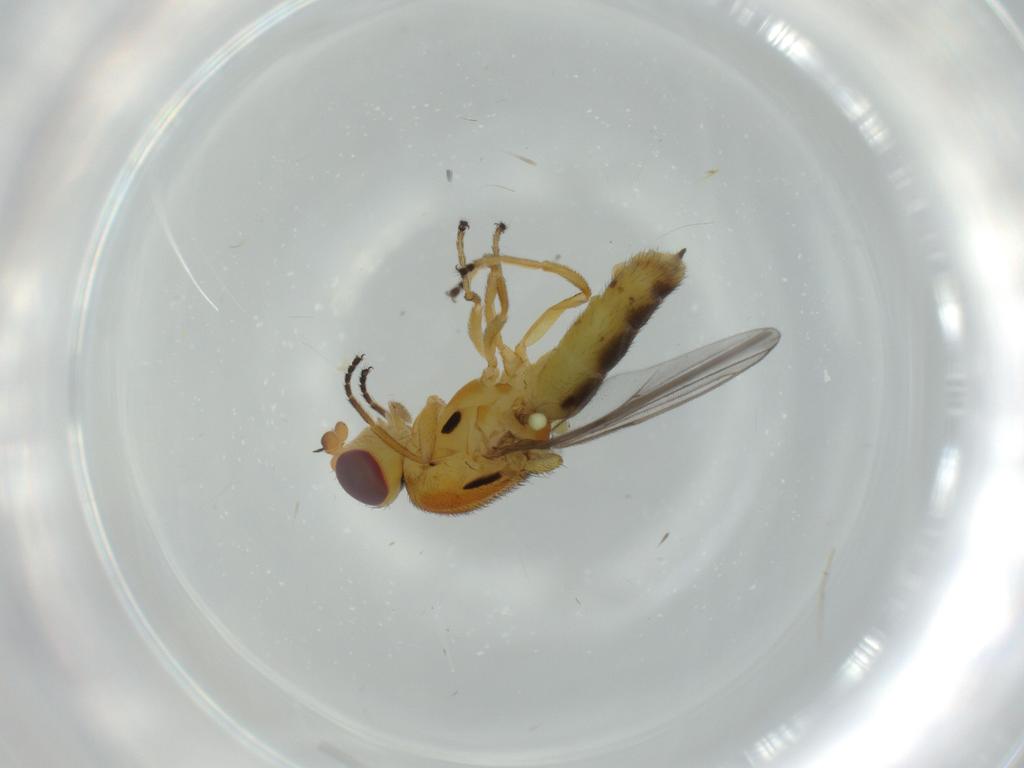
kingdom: Animalia
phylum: Arthropoda
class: Insecta
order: Diptera
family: Chloropidae
